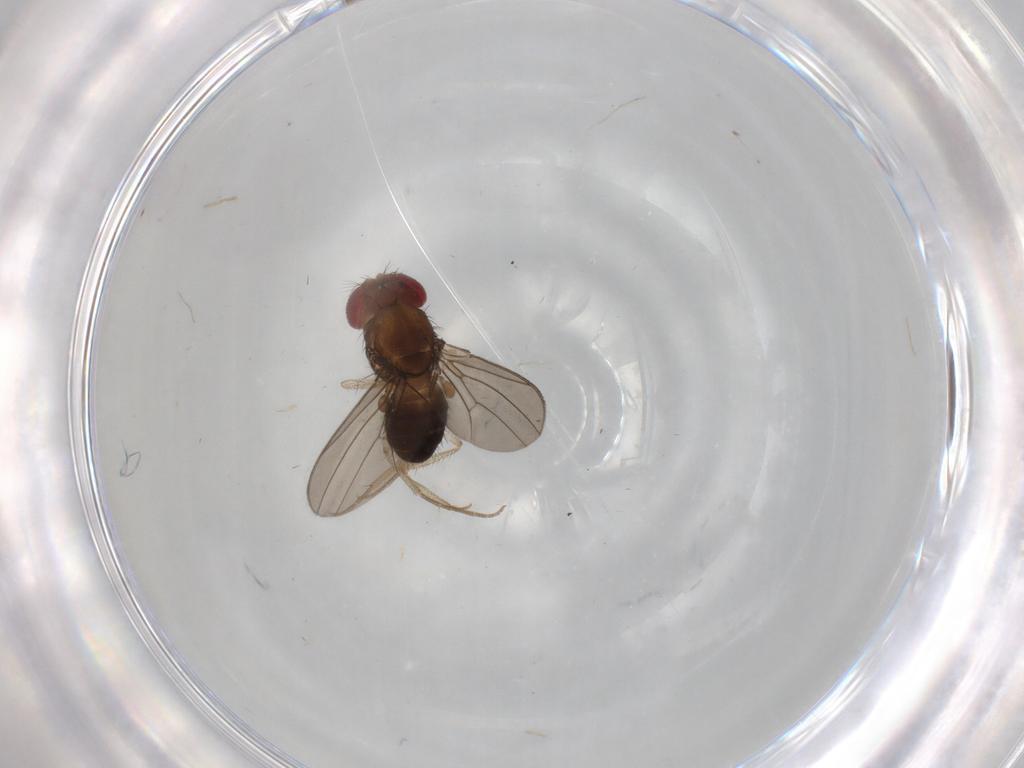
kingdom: Animalia
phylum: Arthropoda
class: Insecta
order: Diptera
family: Drosophilidae
